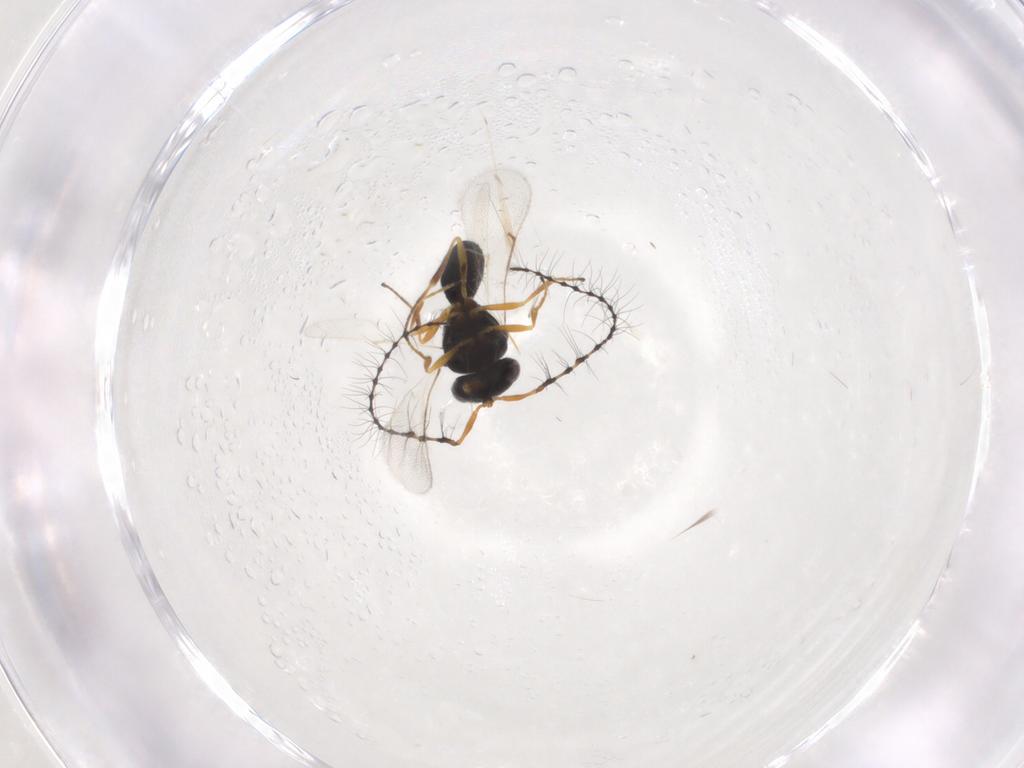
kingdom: Animalia
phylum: Arthropoda
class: Insecta
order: Hymenoptera
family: Scelionidae
